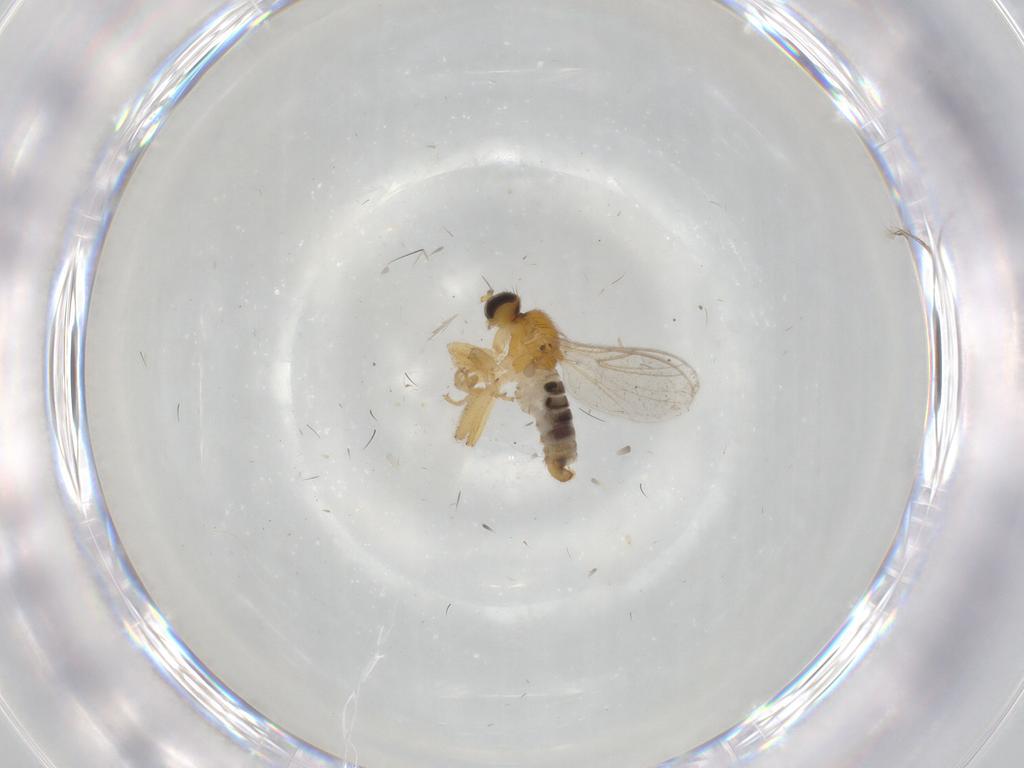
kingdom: Animalia
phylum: Arthropoda
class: Insecta
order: Diptera
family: Hybotidae
